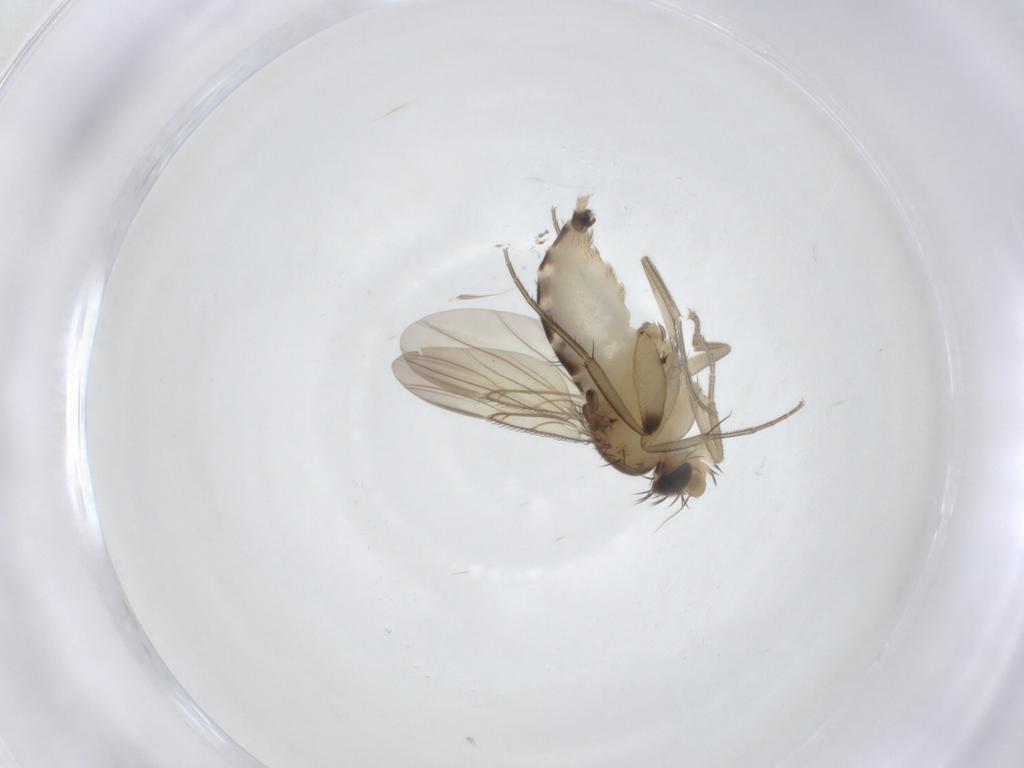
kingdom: Animalia
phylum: Arthropoda
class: Insecta
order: Diptera
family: Phoridae
